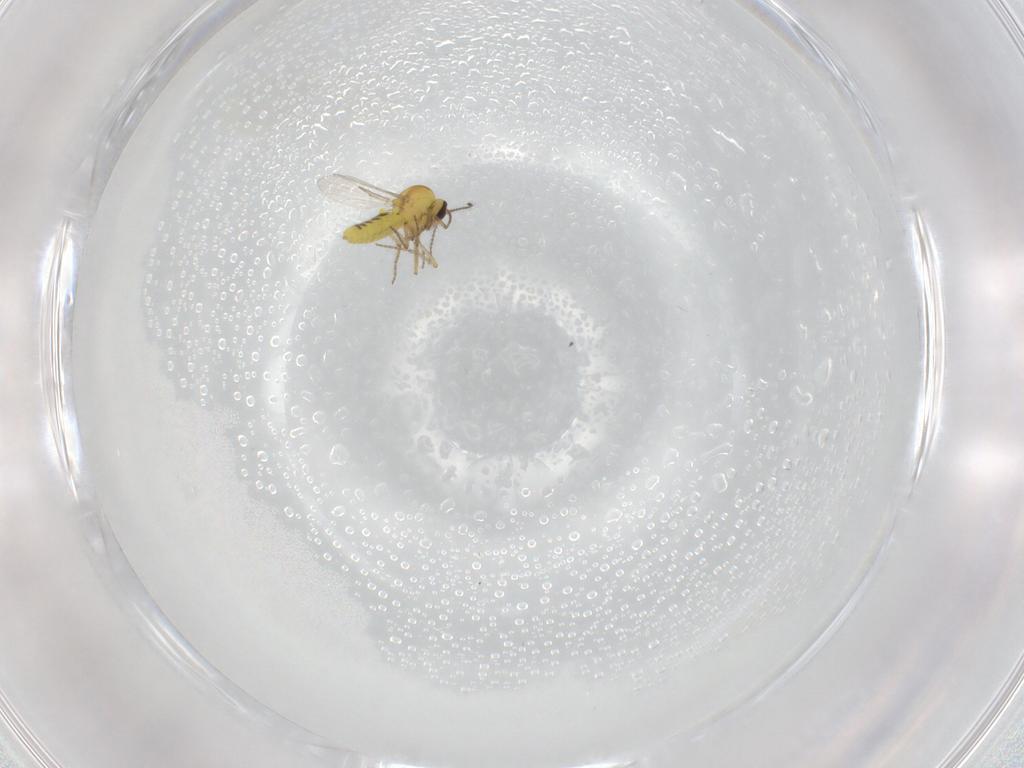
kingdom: Animalia
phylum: Arthropoda
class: Insecta
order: Diptera
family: Ceratopogonidae
